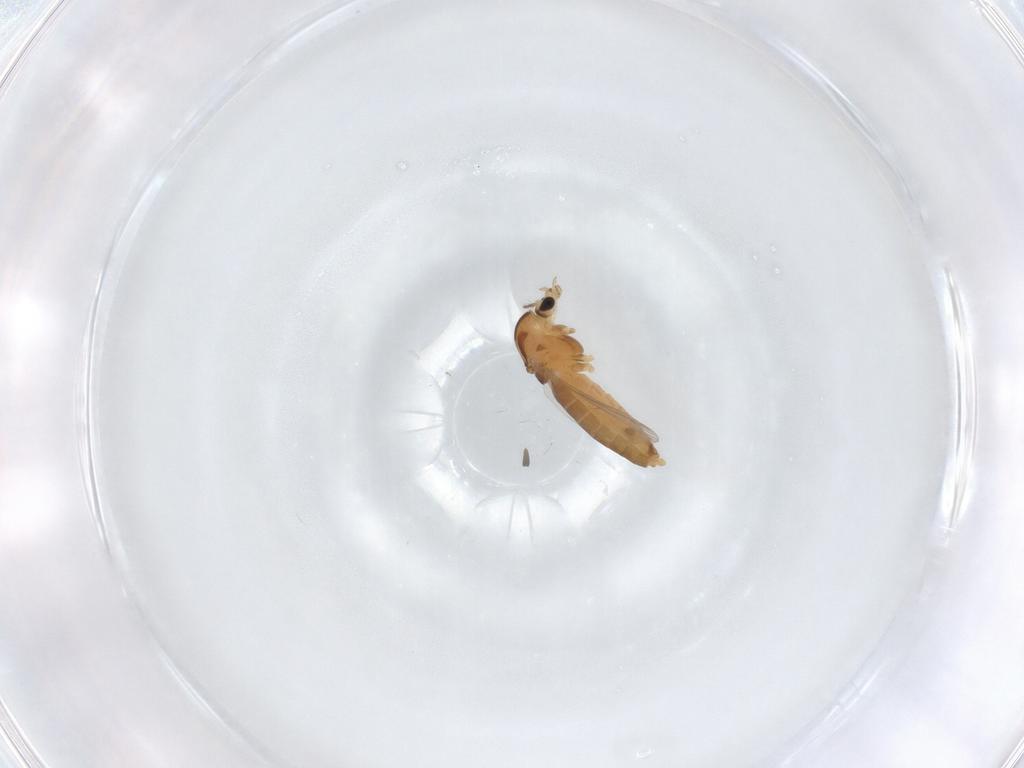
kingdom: Animalia
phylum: Arthropoda
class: Insecta
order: Diptera
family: Chironomidae
